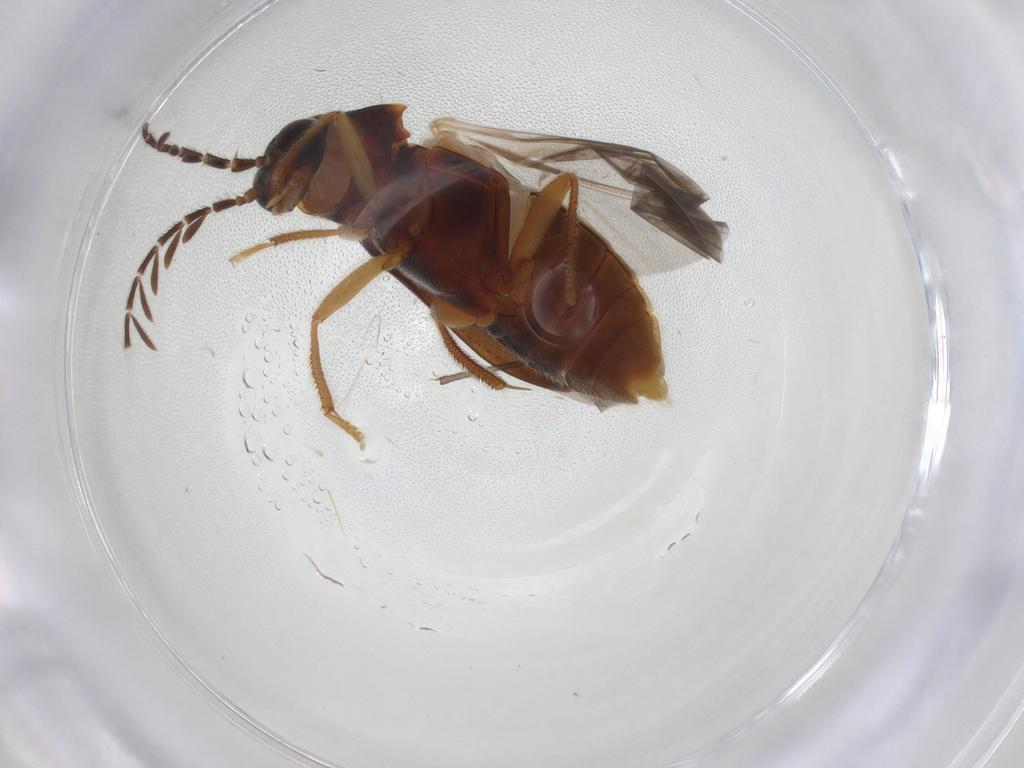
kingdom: Animalia
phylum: Arthropoda
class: Insecta
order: Coleoptera
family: Ptilodactylidae
